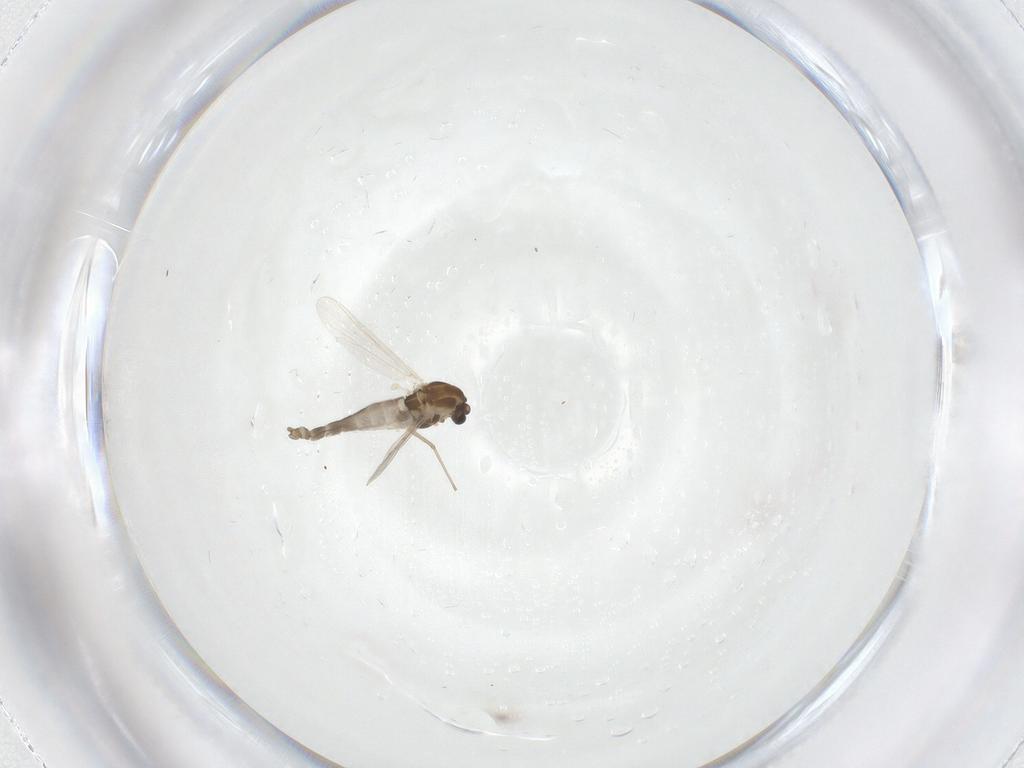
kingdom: Animalia
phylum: Arthropoda
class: Insecta
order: Diptera
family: Chironomidae
